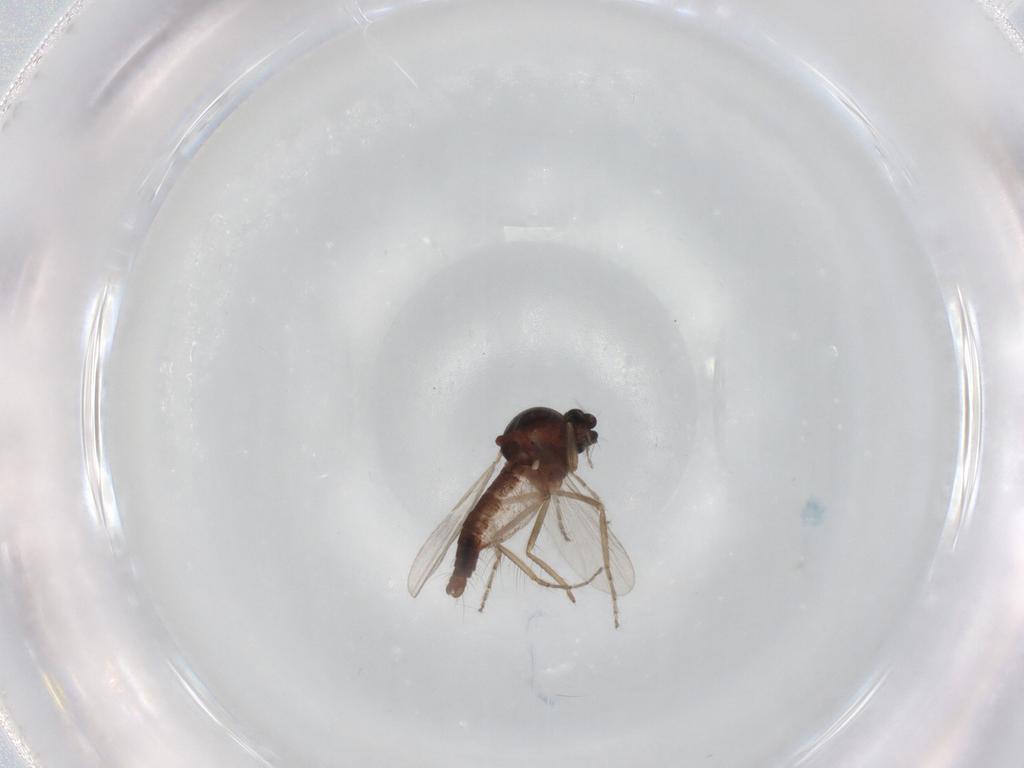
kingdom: Animalia
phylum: Arthropoda
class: Insecta
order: Diptera
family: Ceratopogonidae
